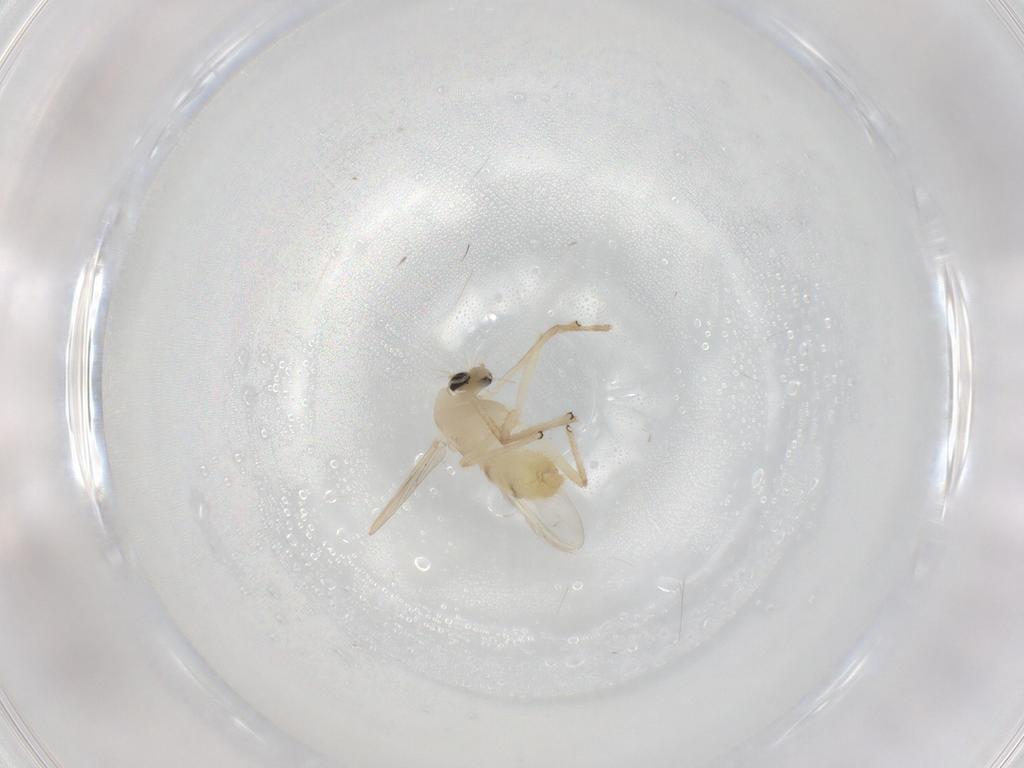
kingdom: Animalia
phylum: Arthropoda
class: Insecta
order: Diptera
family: Chironomidae
